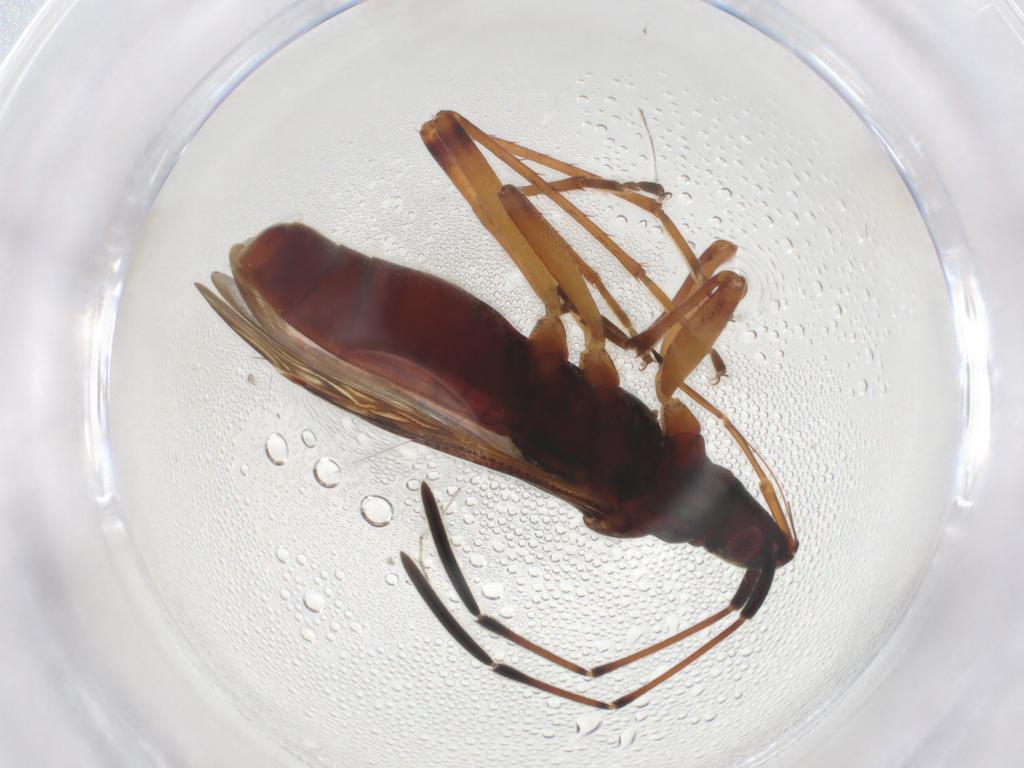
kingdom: Animalia
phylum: Arthropoda
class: Insecta
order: Hemiptera
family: Rhyparochromidae
